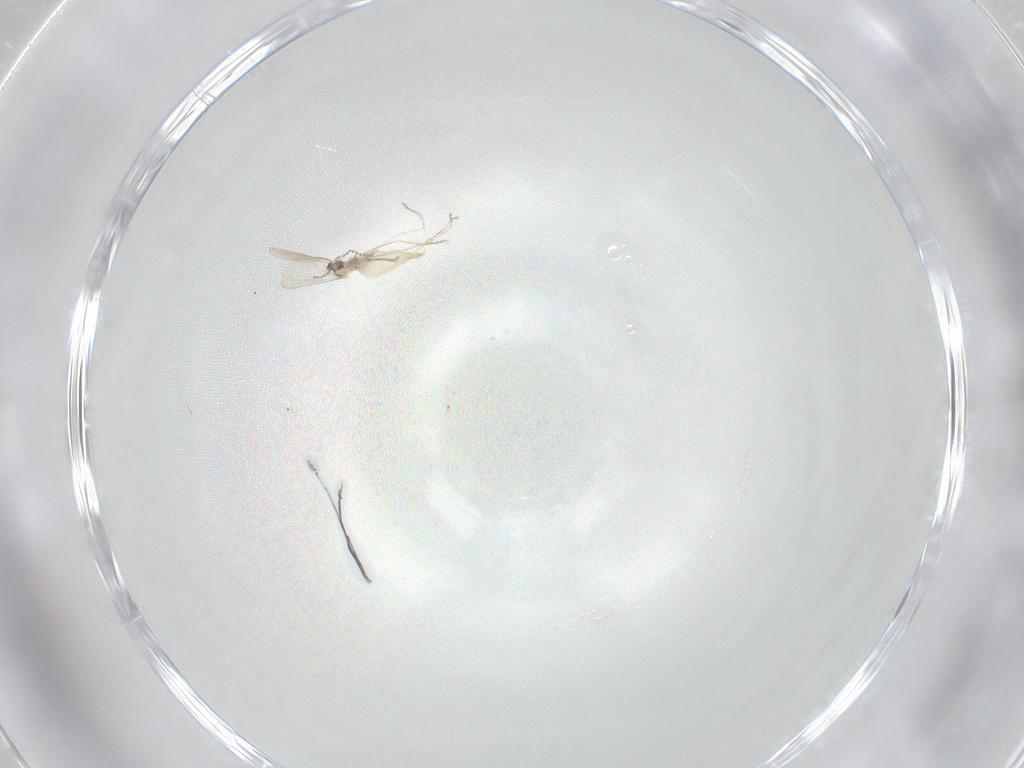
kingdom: Animalia
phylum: Arthropoda
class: Insecta
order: Diptera
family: Cecidomyiidae
